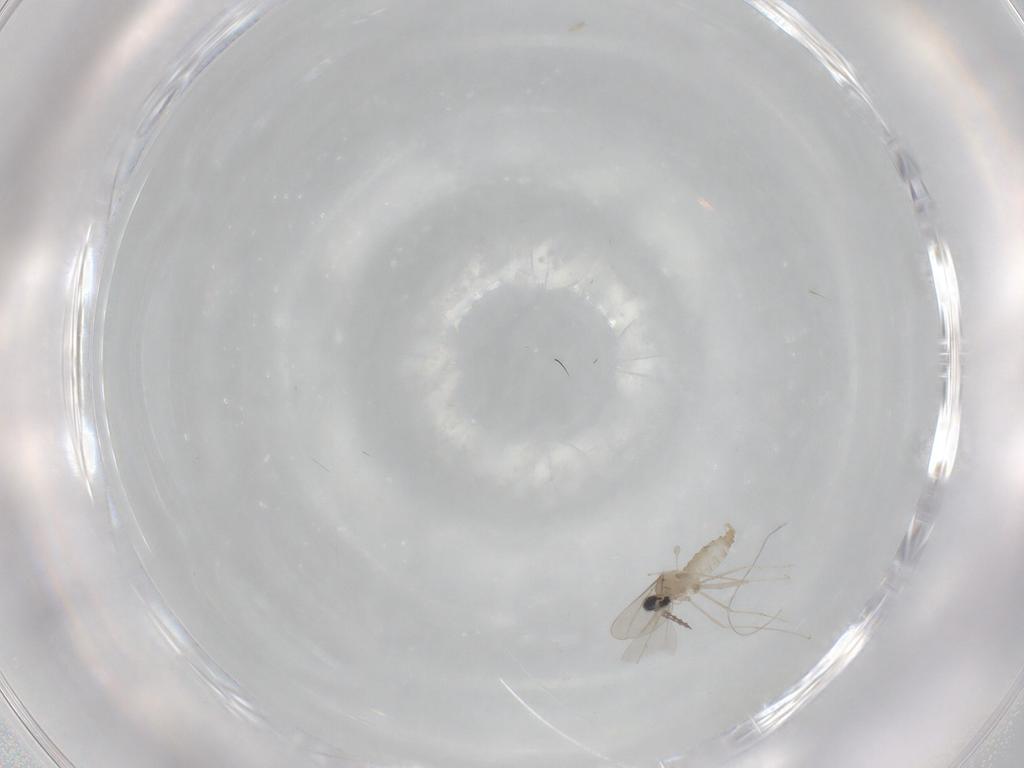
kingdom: Animalia
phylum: Arthropoda
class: Insecta
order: Diptera
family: Cecidomyiidae
